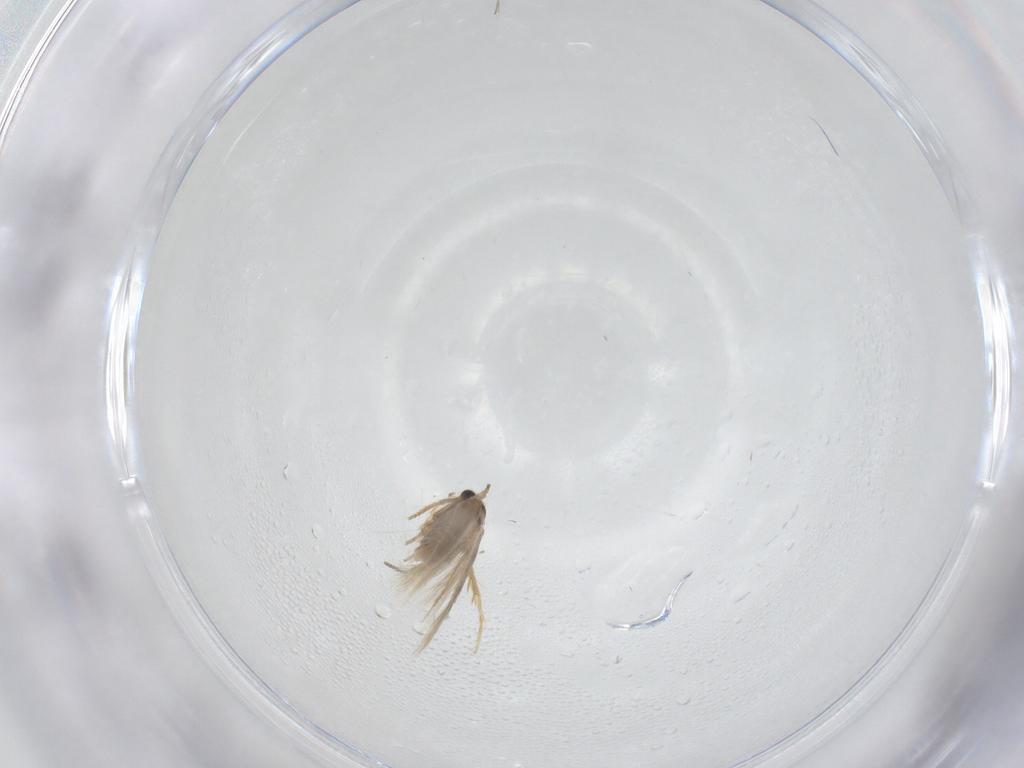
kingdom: Animalia
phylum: Arthropoda
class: Insecta
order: Lepidoptera
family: Nepticulidae
